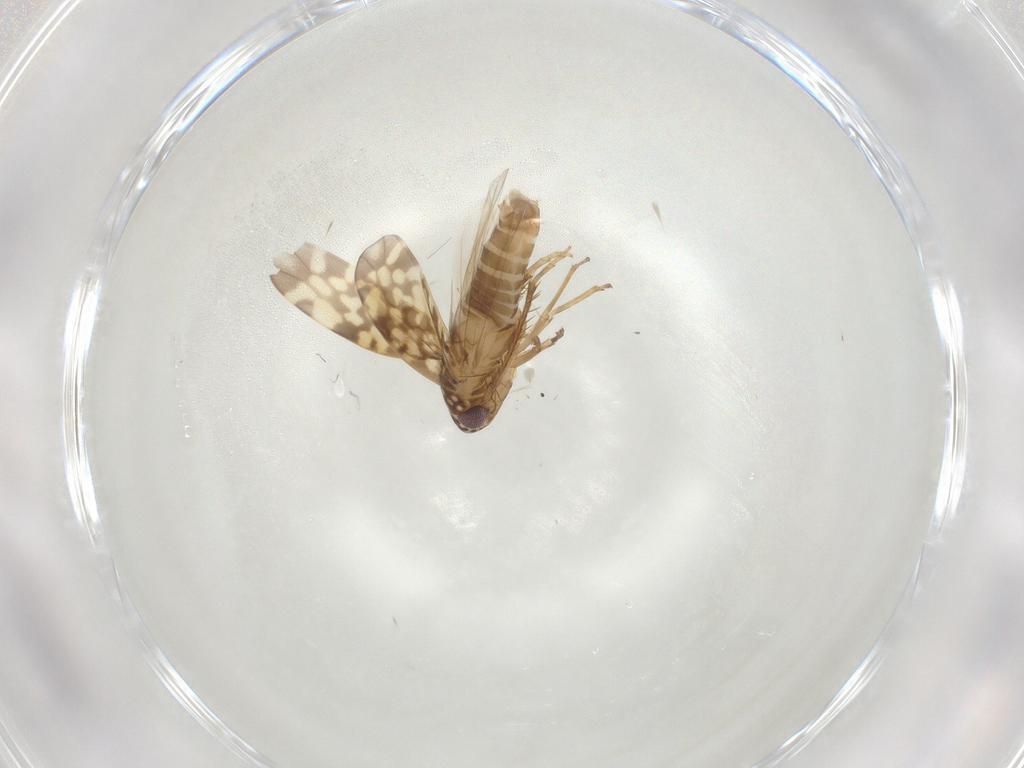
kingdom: Animalia
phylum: Arthropoda
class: Insecta
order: Hemiptera
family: Cicadellidae
